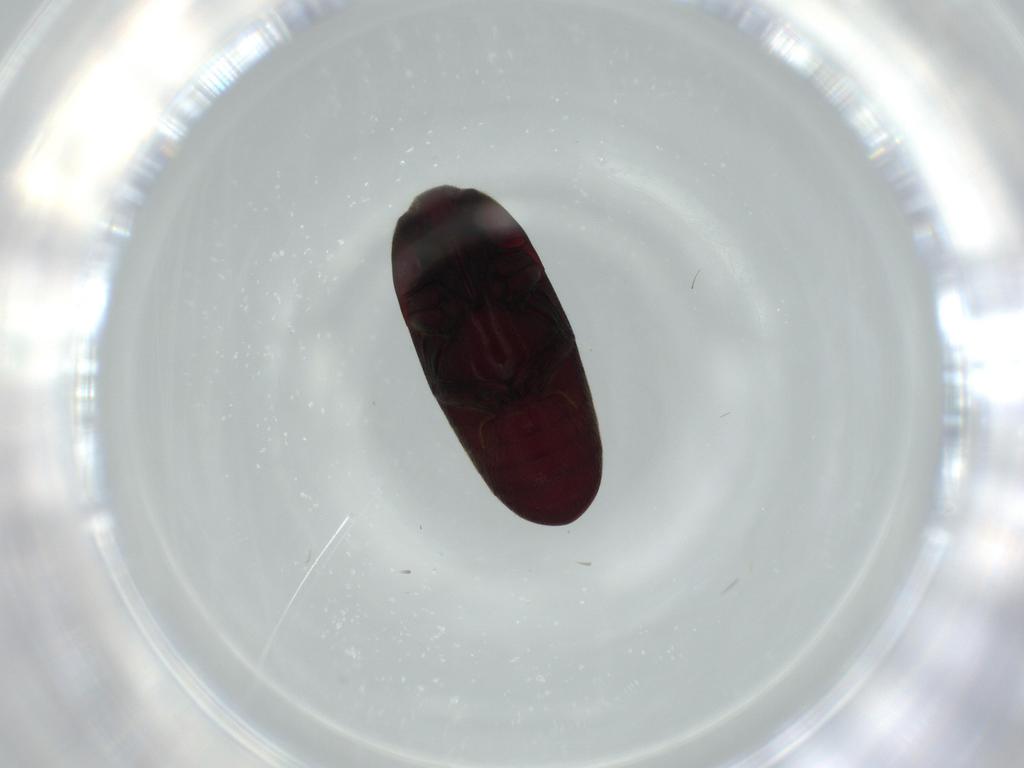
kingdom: Animalia
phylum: Arthropoda
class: Insecta
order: Coleoptera
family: Throscidae
